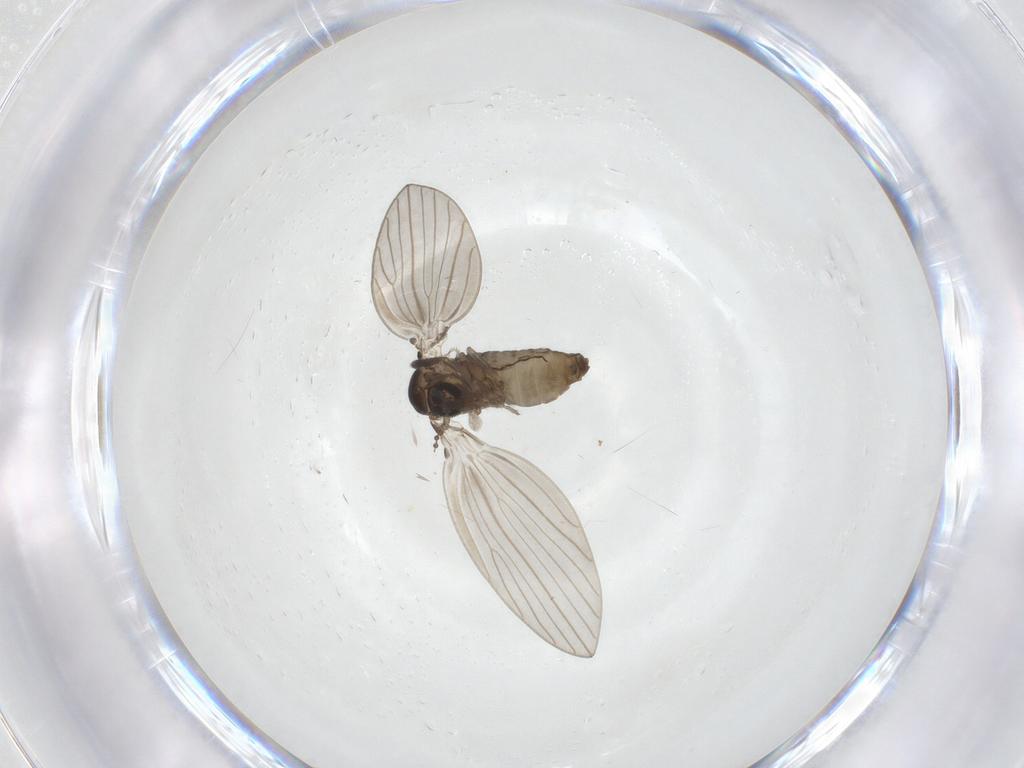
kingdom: Animalia
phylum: Arthropoda
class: Insecta
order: Diptera
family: Psychodidae
